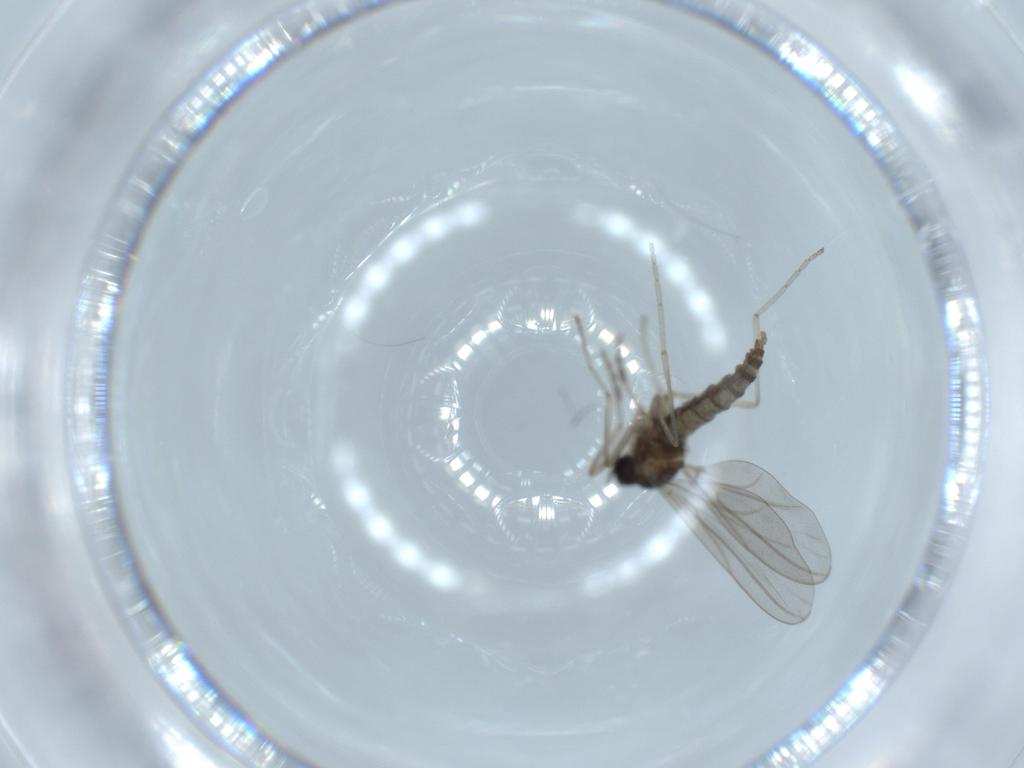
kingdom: Animalia
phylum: Arthropoda
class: Insecta
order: Diptera
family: Cecidomyiidae
